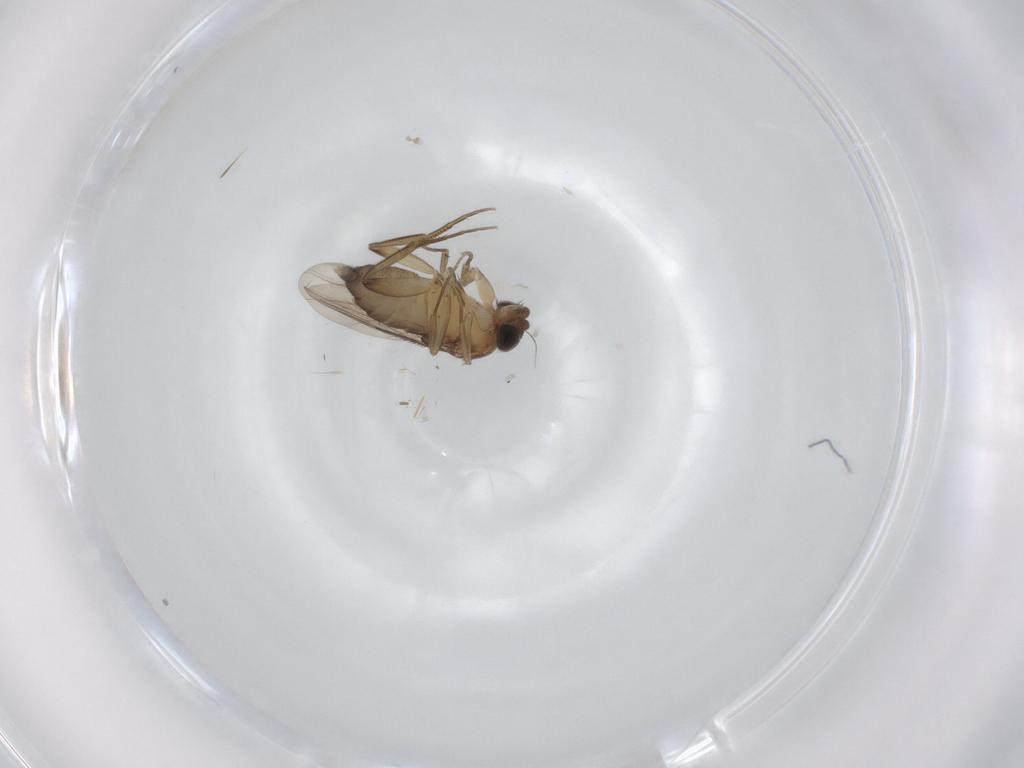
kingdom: Animalia
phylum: Arthropoda
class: Insecta
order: Diptera
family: Phoridae
